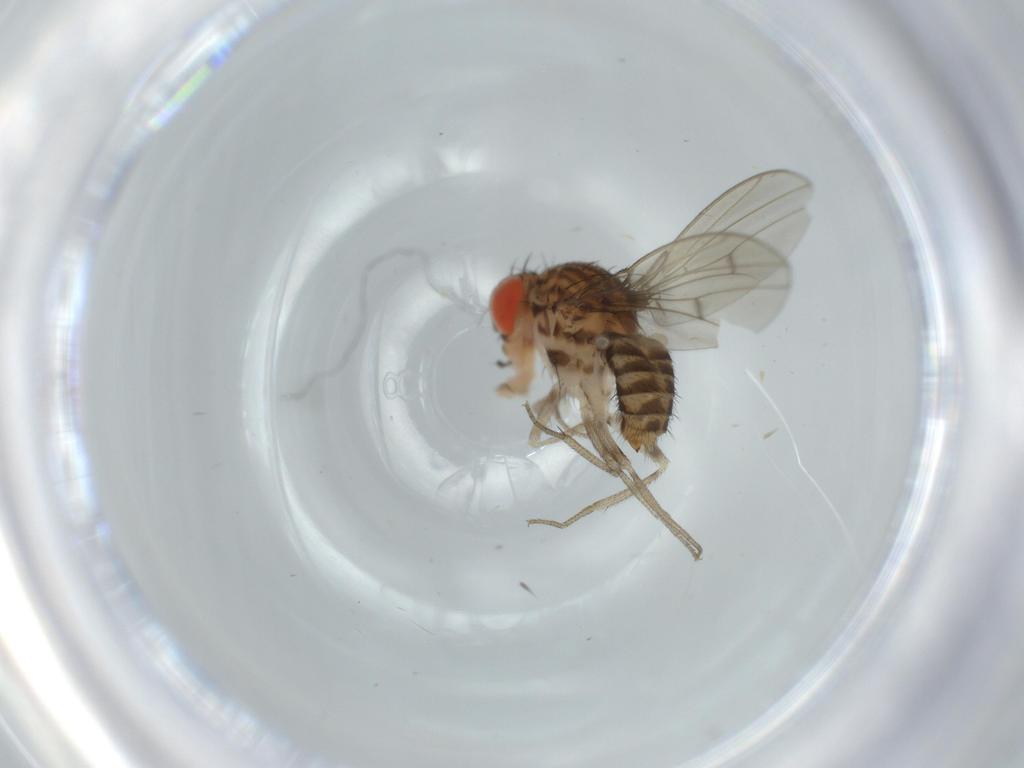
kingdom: Animalia
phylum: Arthropoda
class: Insecta
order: Diptera
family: Drosophilidae
